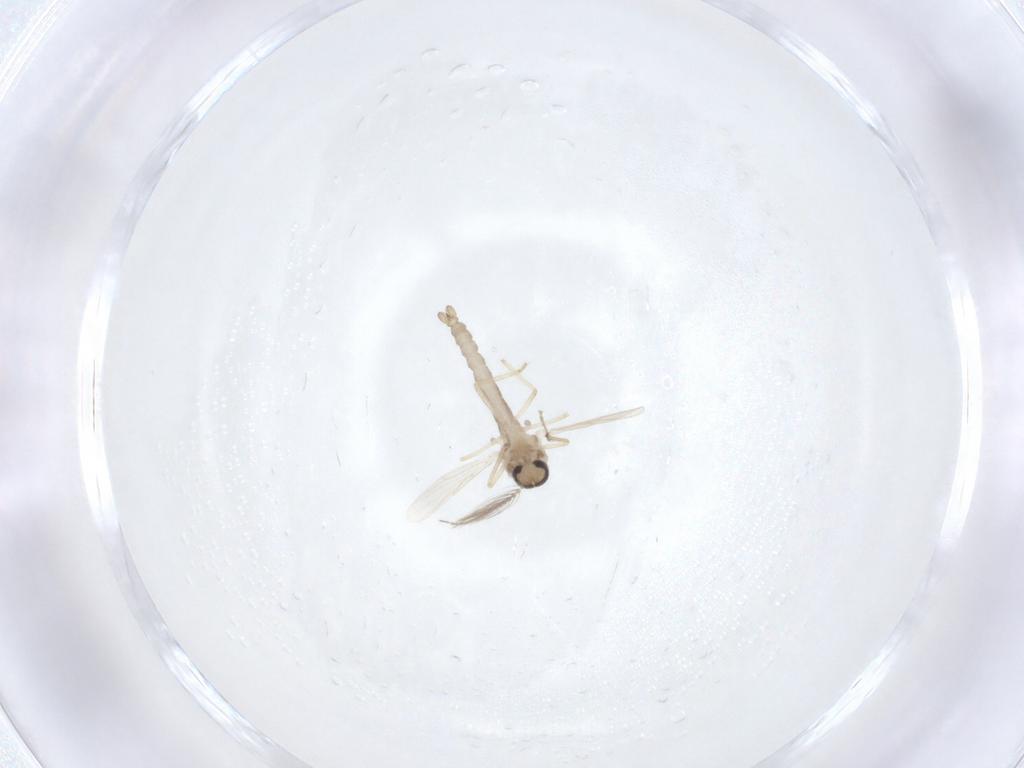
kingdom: Animalia
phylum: Arthropoda
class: Insecta
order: Diptera
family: Ceratopogonidae
